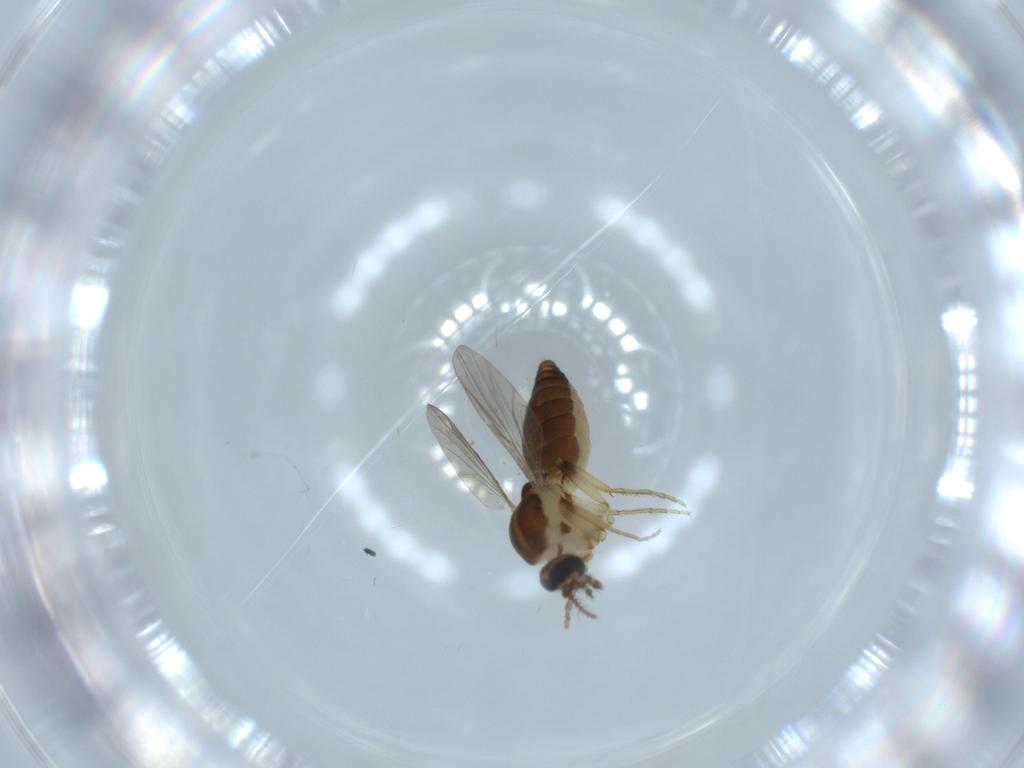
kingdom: Animalia
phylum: Arthropoda
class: Insecta
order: Diptera
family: Ceratopogonidae
